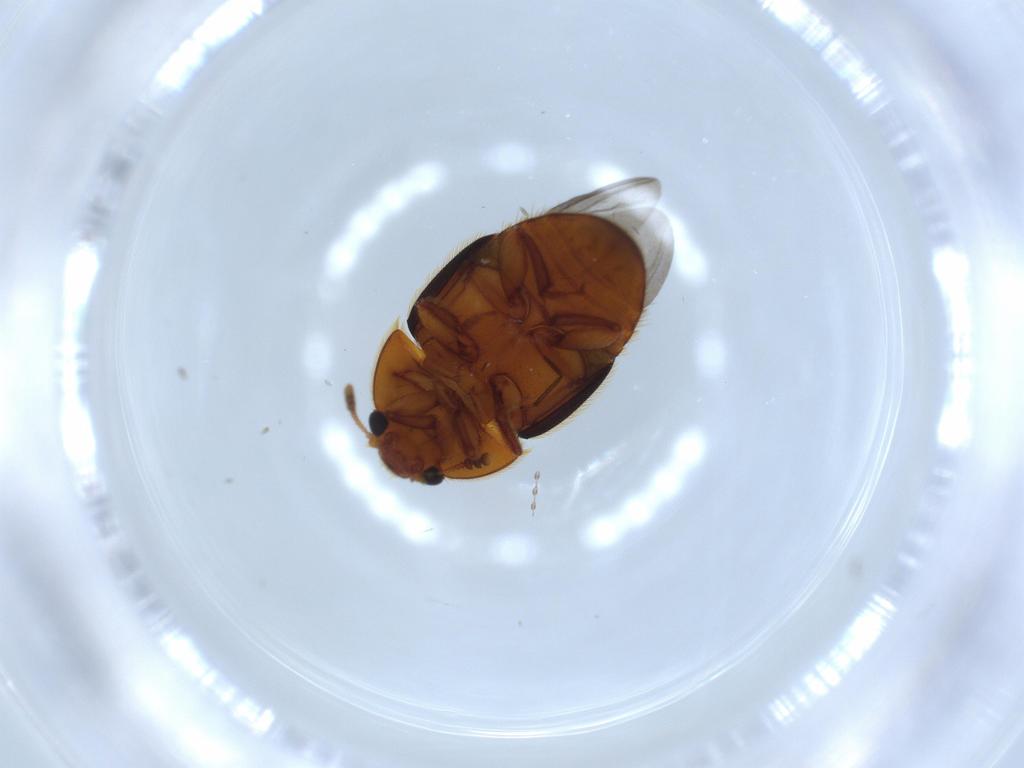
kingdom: Animalia
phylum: Arthropoda
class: Insecta
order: Coleoptera
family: Nitidulidae
